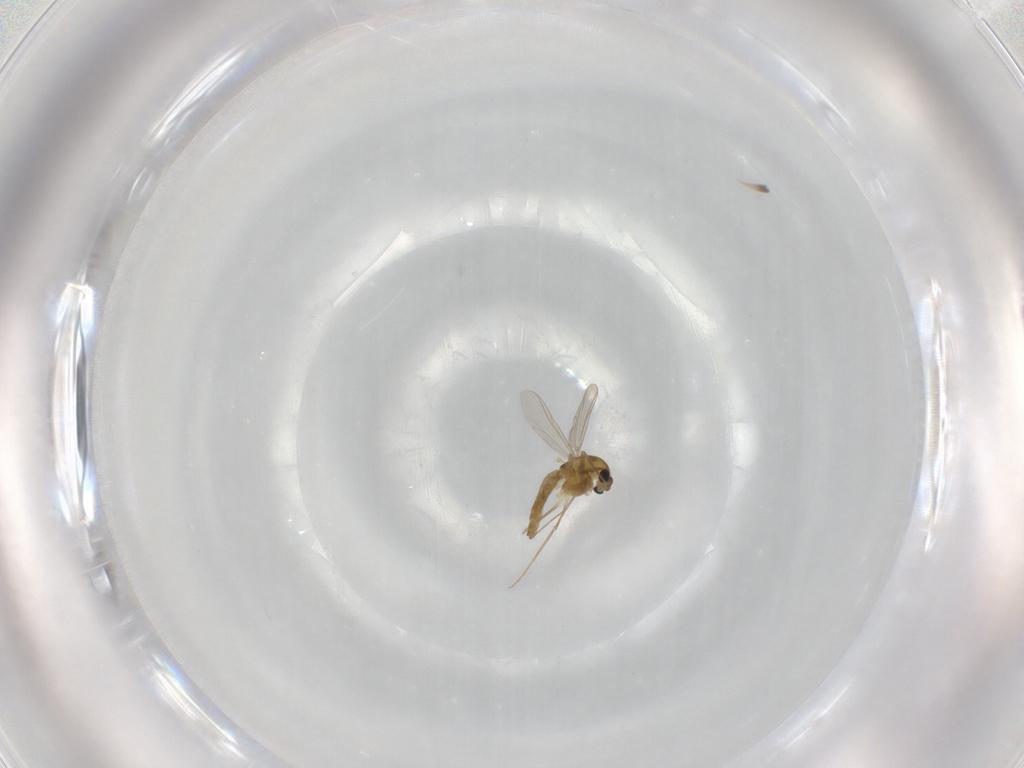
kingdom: Animalia
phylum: Arthropoda
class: Insecta
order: Diptera
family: Chironomidae
